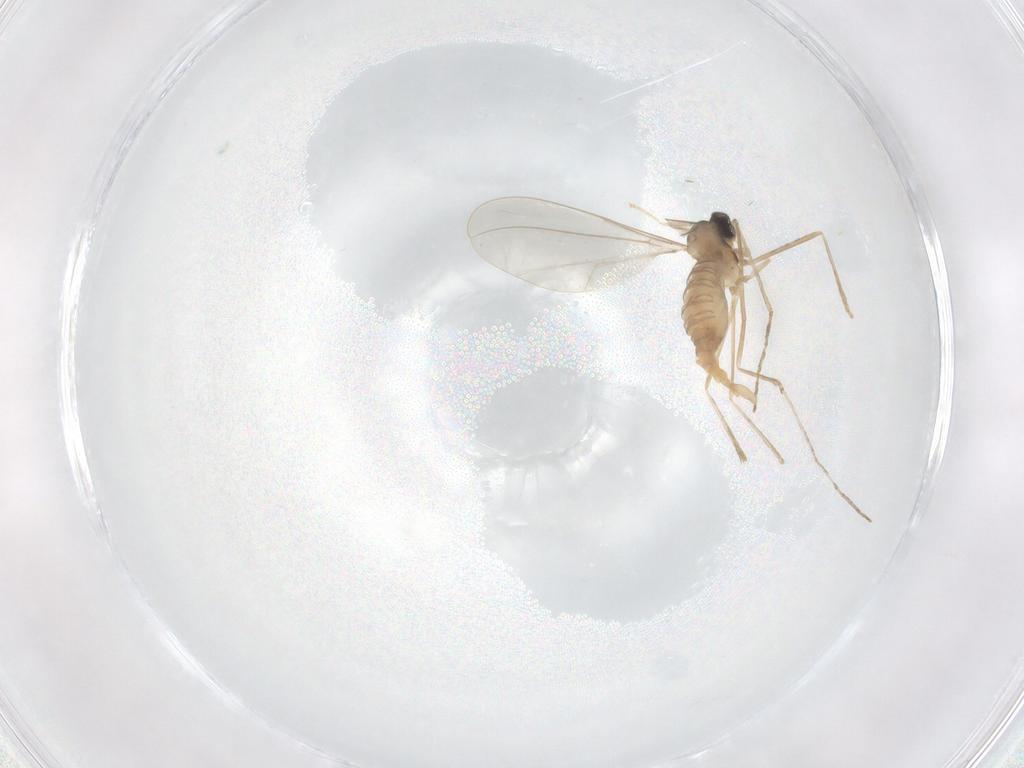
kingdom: Animalia
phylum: Arthropoda
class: Insecta
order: Diptera
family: Cecidomyiidae
